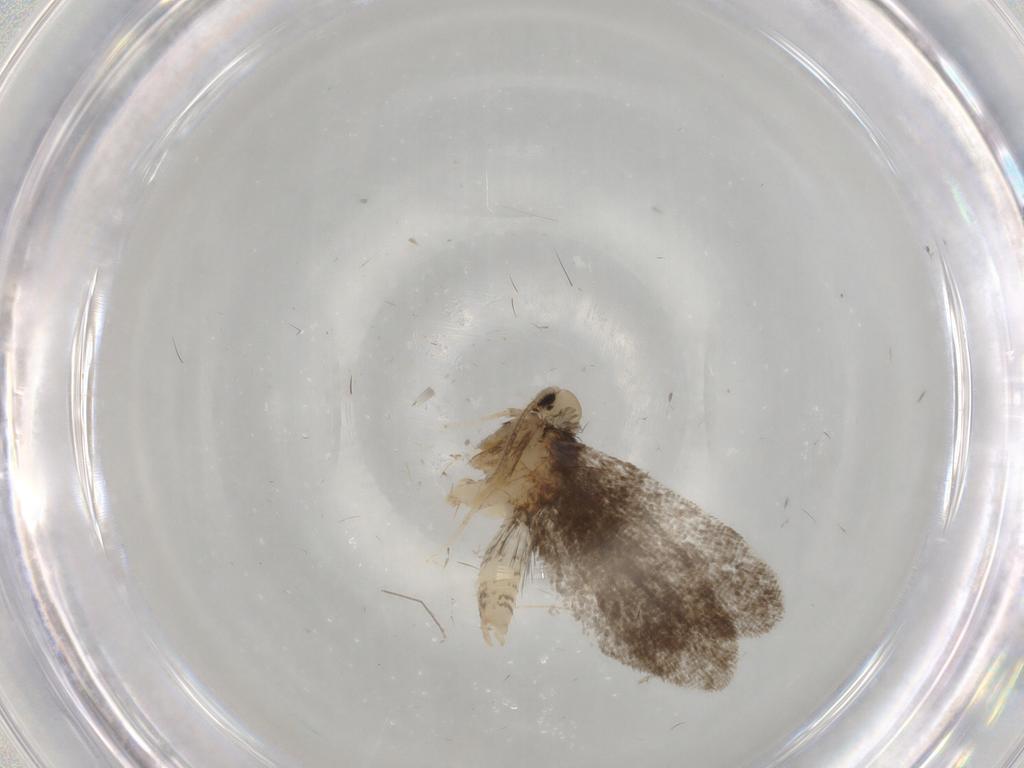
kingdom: Animalia
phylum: Arthropoda
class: Insecta
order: Lepidoptera
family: Psychidae
